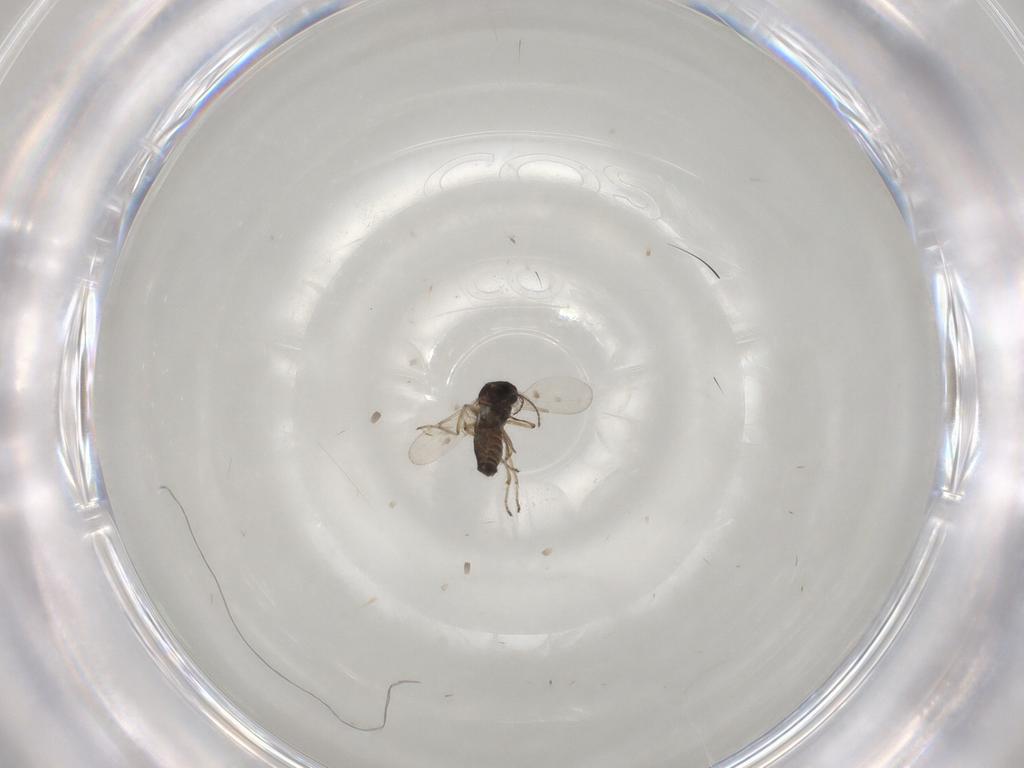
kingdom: Animalia
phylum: Arthropoda
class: Insecta
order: Diptera
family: Ceratopogonidae
